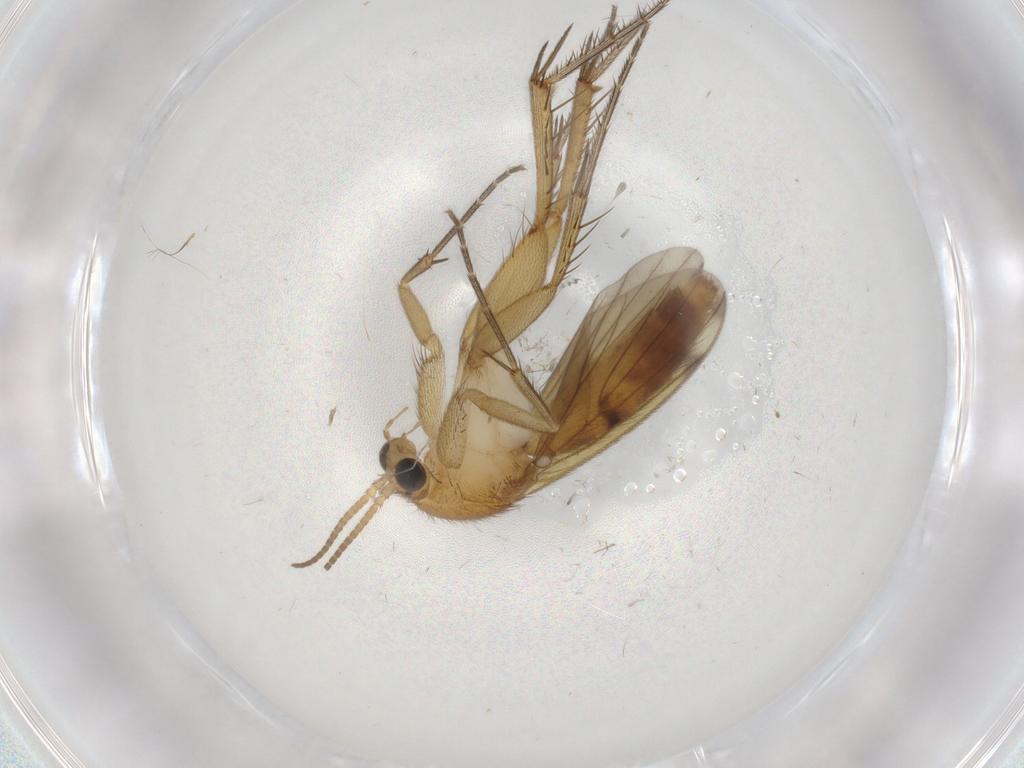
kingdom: Animalia
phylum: Arthropoda
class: Insecta
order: Diptera
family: Mycetophilidae
